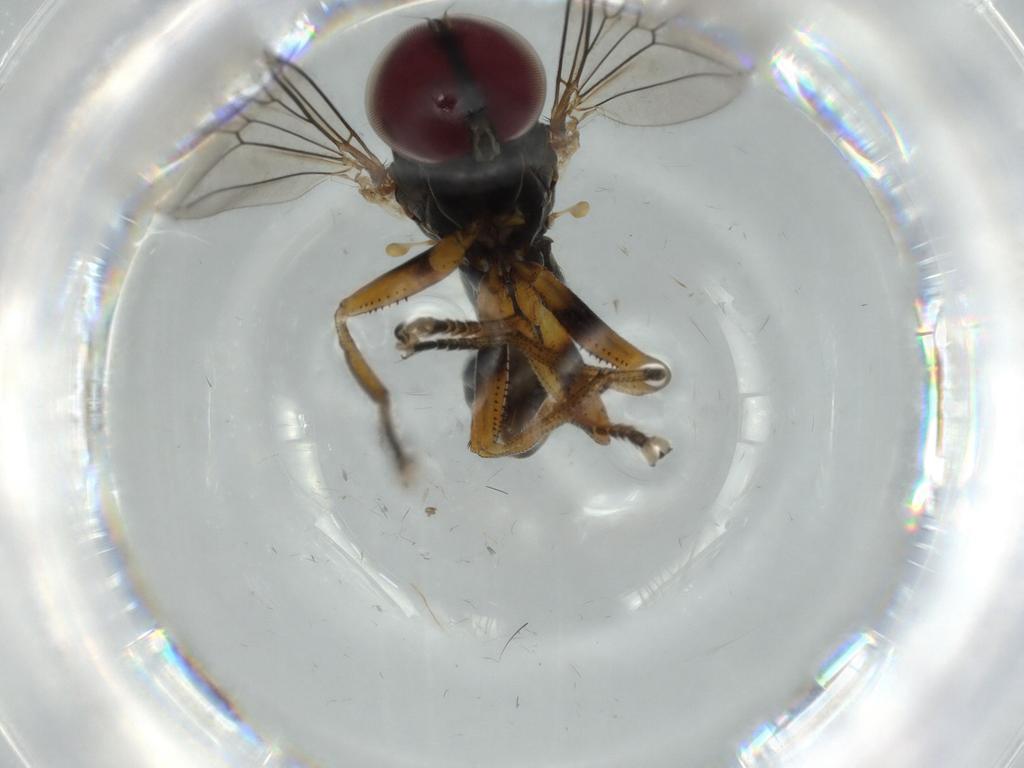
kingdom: Animalia
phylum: Arthropoda
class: Insecta
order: Diptera
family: Pipunculidae
